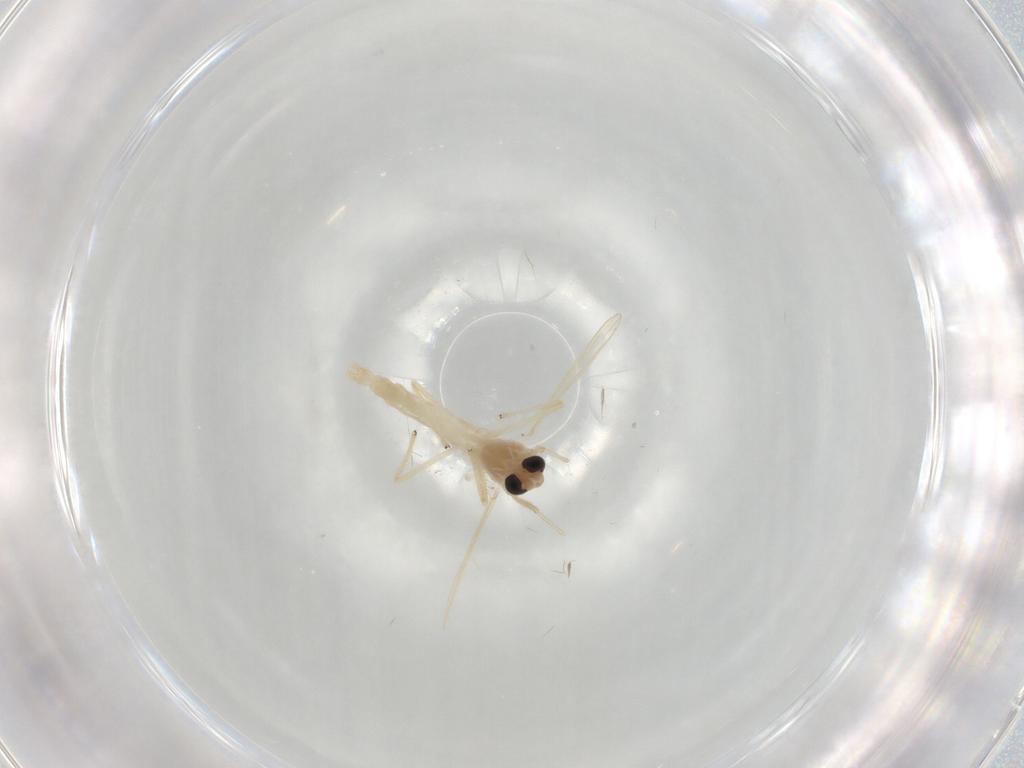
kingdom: Animalia
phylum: Arthropoda
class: Insecta
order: Diptera
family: Chironomidae
